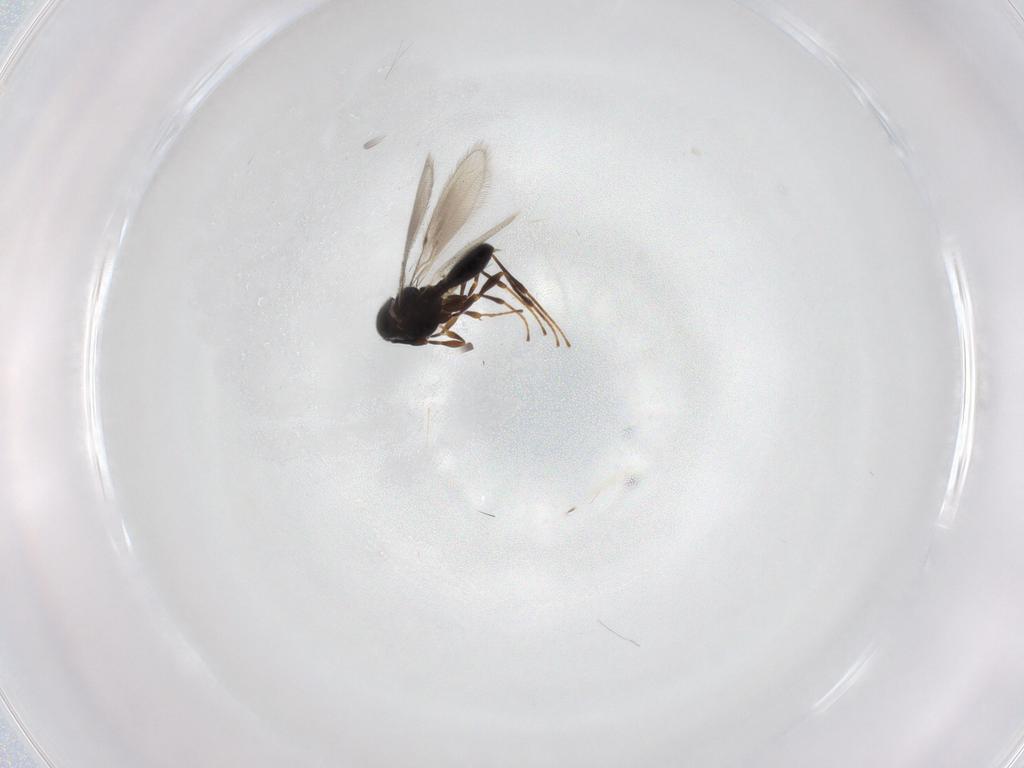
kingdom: Animalia
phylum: Arthropoda
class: Insecta
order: Hymenoptera
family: Platygastridae
